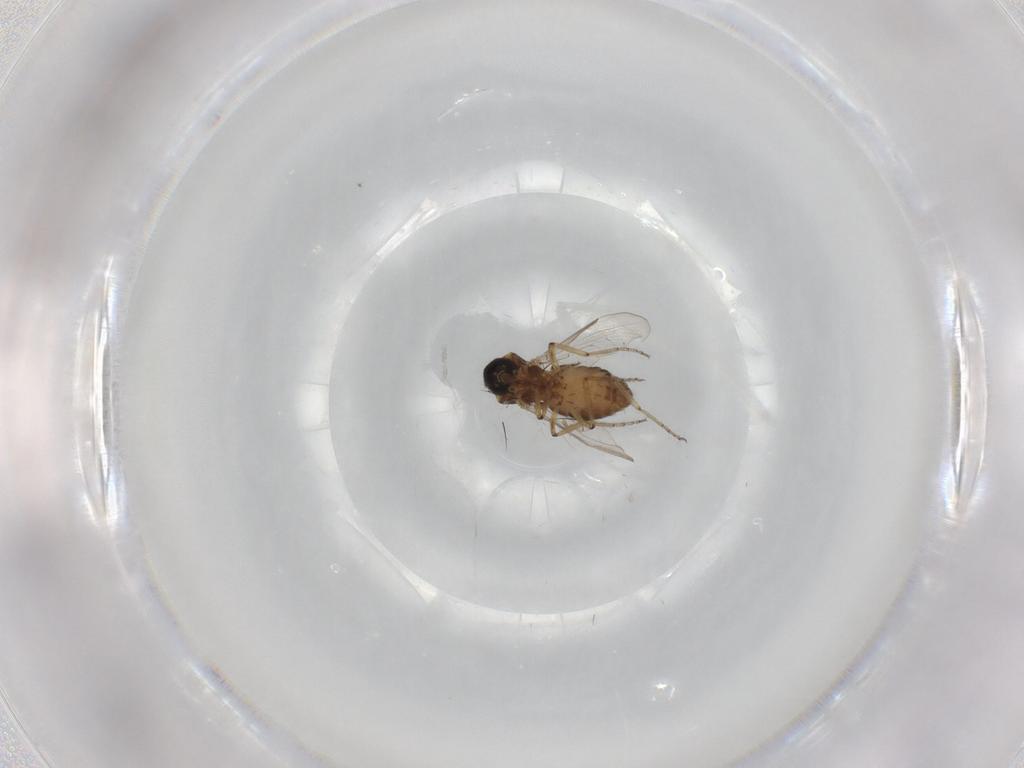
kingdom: Animalia
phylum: Arthropoda
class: Insecta
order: Diptera
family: Ceratopogonidae
